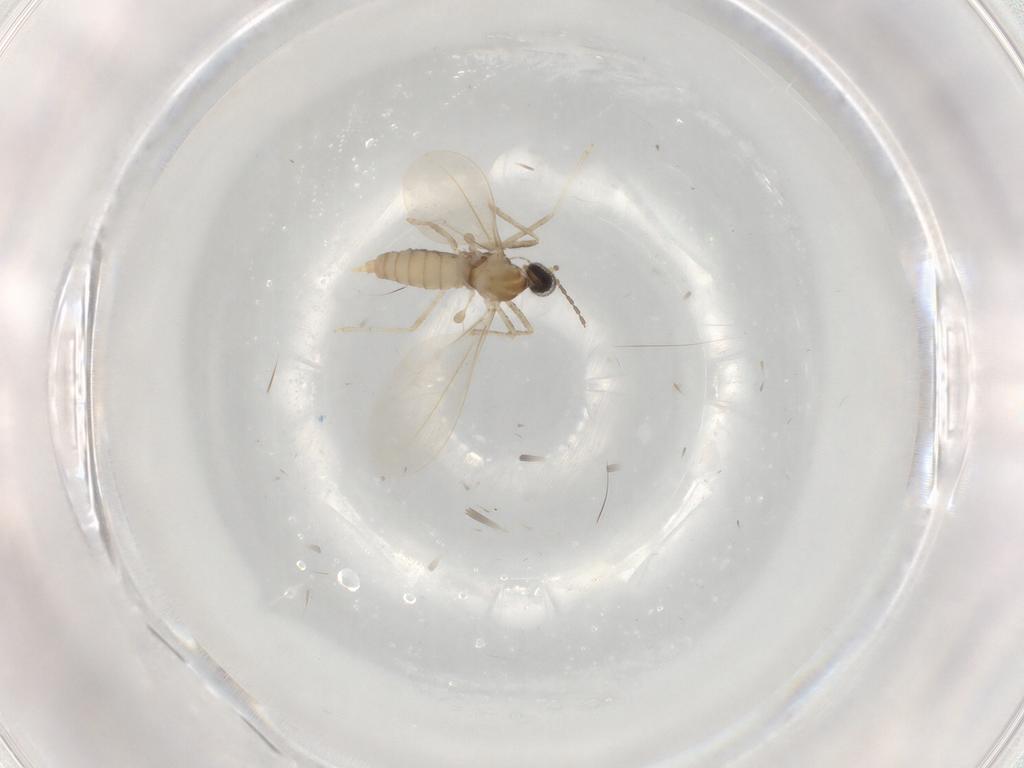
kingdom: Animalia
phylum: Arthropoda
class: Insecta
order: Diptera
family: Cecidomyiidae
